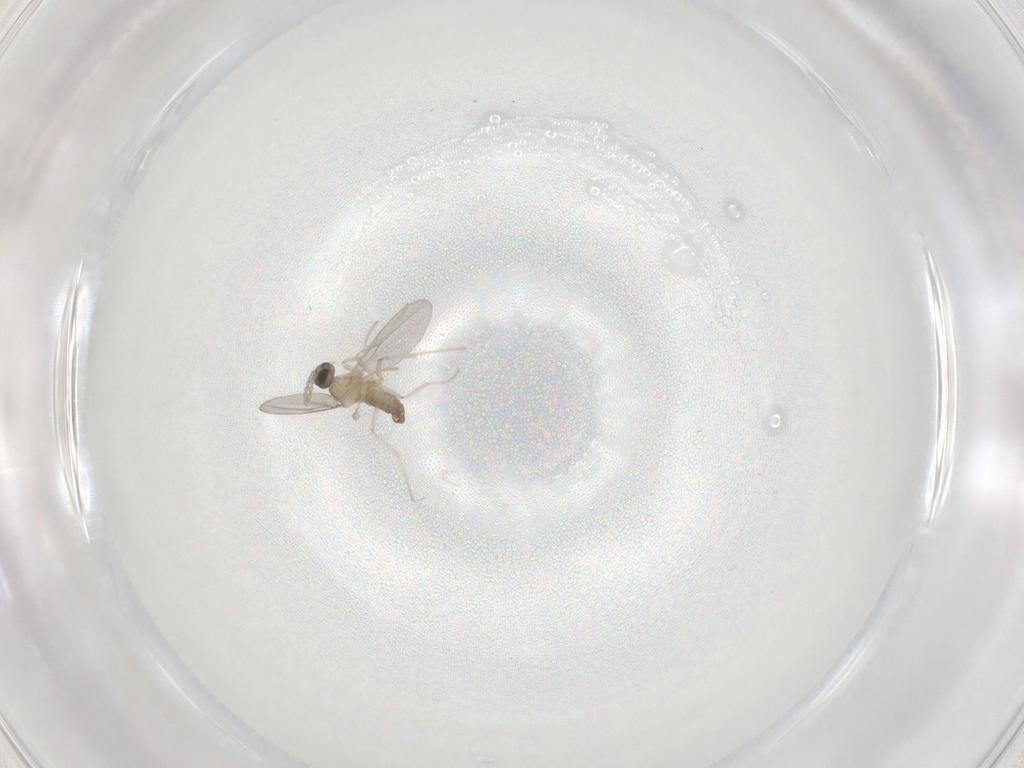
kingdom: Animalia
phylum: Arthropoda
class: Insecta
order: Diptera
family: Cecidomyiidae
